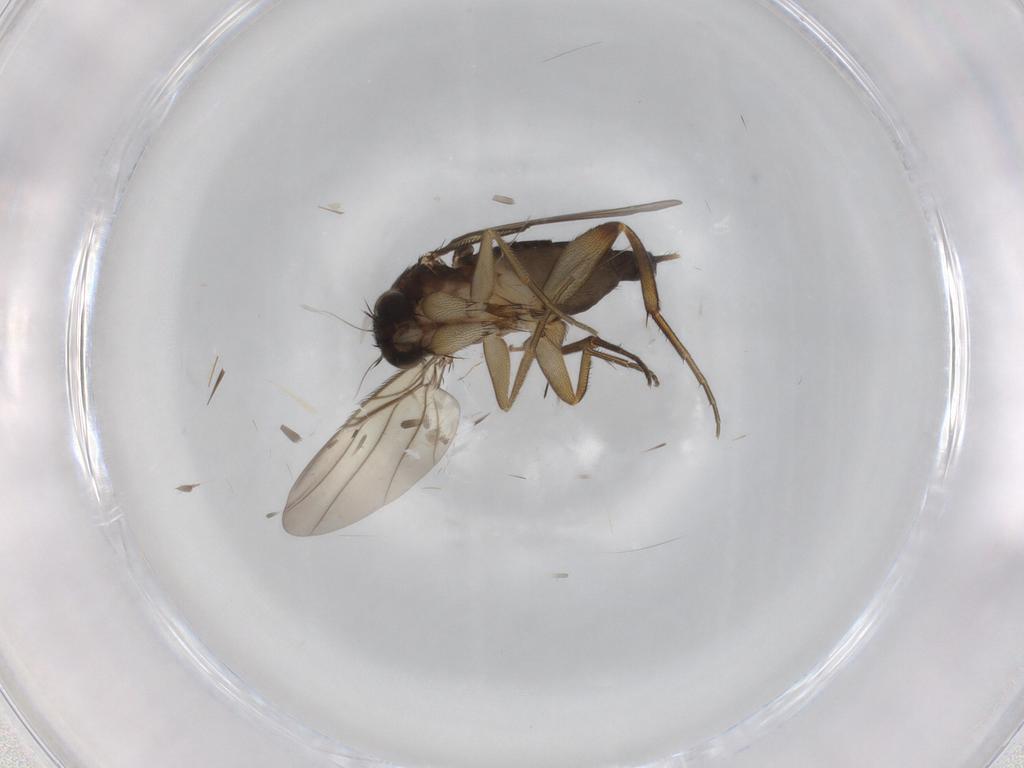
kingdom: Animalia
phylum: Arthropoda
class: Insecta
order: Diptera
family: Phoridae
